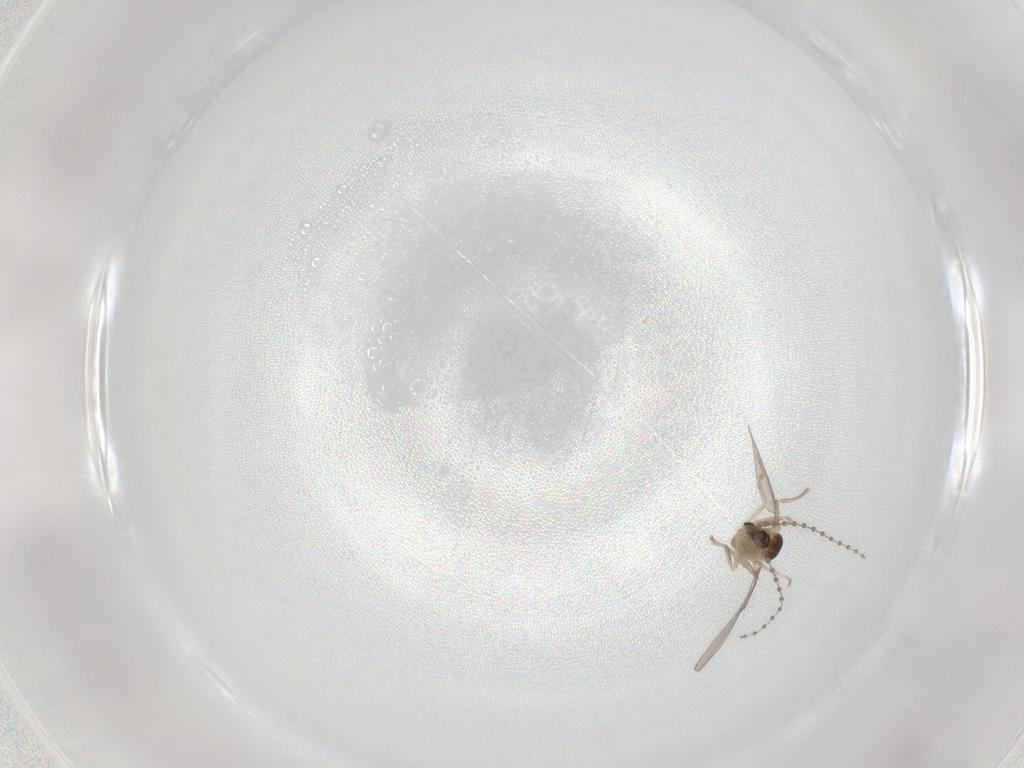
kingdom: Animalia
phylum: Arthropoda
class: Insecta
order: Diptera
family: Cecidomyiidae
